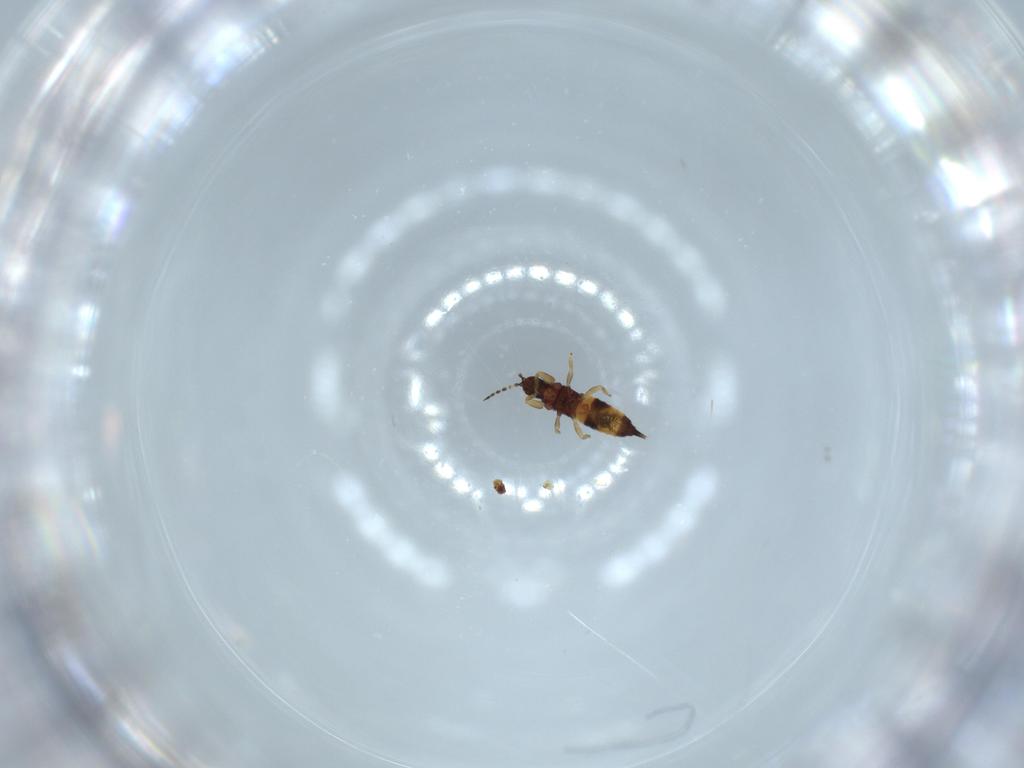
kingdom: Animalia
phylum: Arthropoda
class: Insecta
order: Thysanoptera
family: Phlaeothripidae
